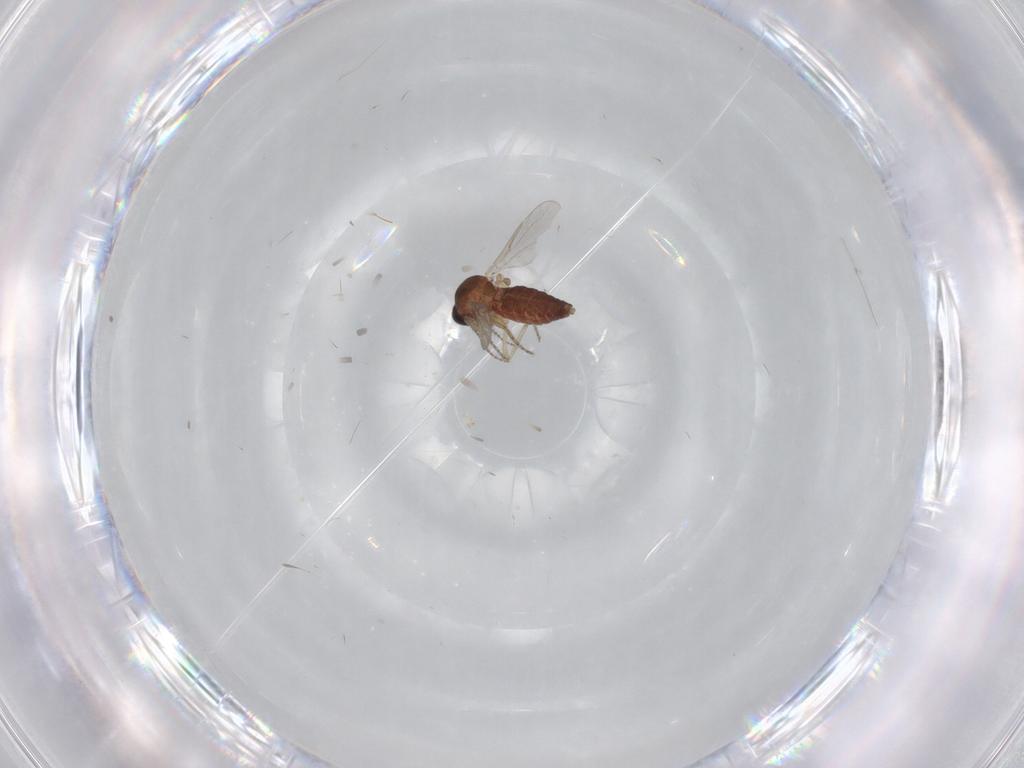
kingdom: Animalia
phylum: Arthropoda
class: Insecta
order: Diptera
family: Ceratopogonidae
